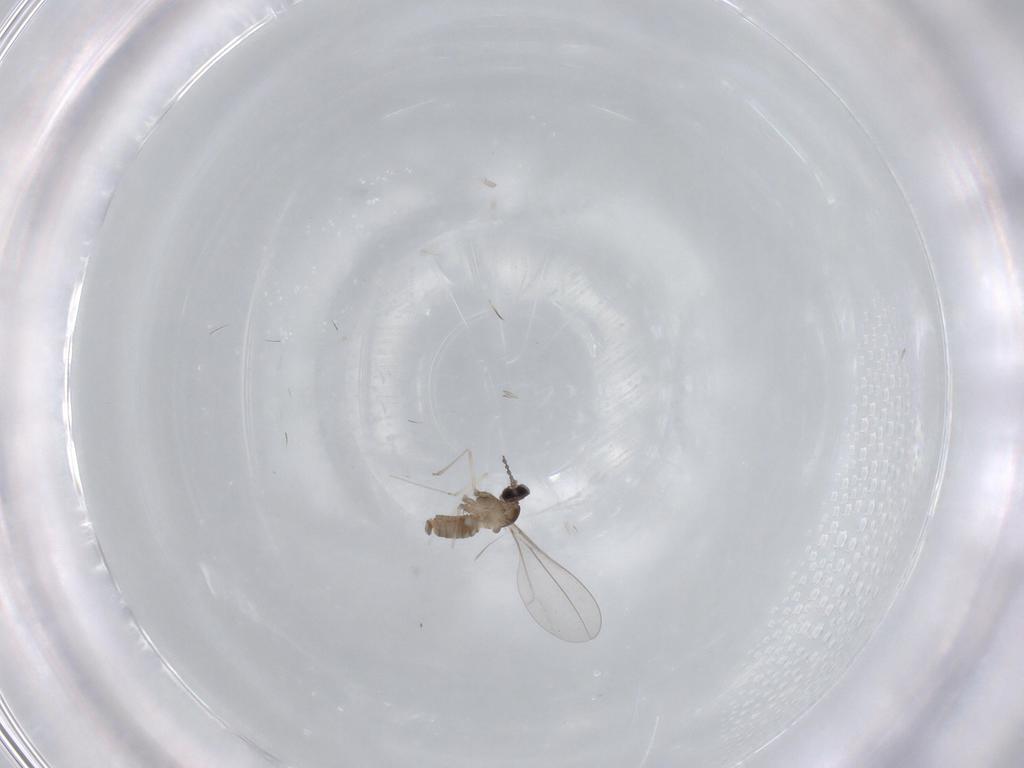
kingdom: Animalia
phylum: Arthropoda
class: Insecta
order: Diptera
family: Cecidomyiidae
